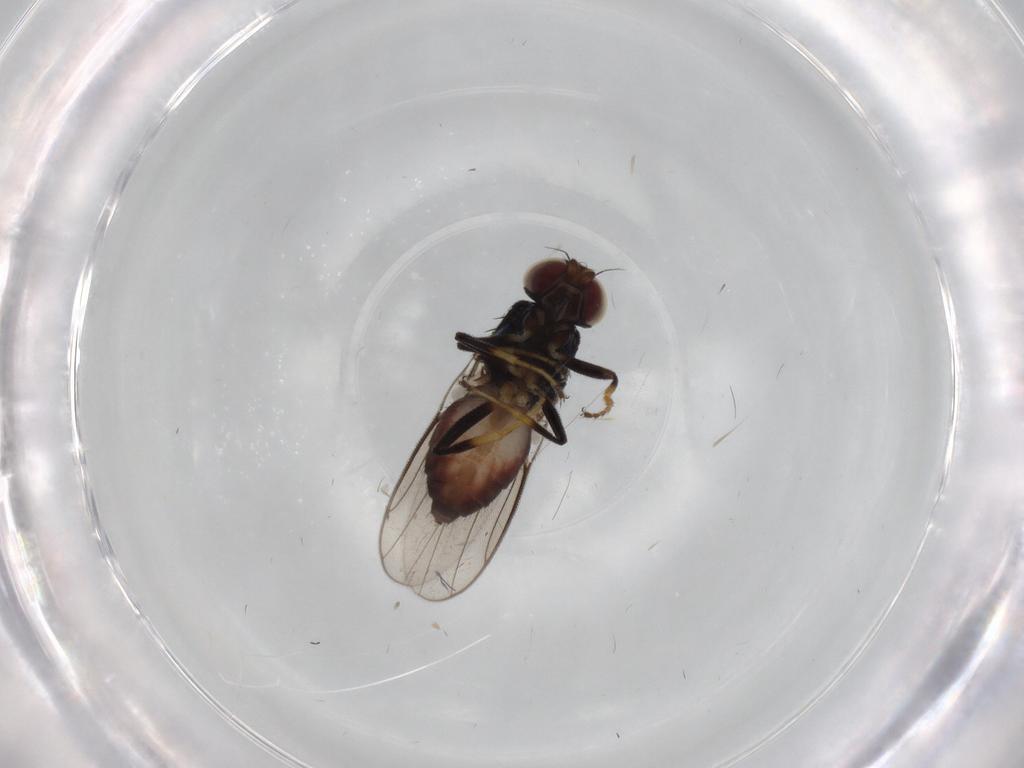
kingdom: Animalia
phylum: Arthropoda
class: Insecta
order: Diptera
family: Chloropidae
